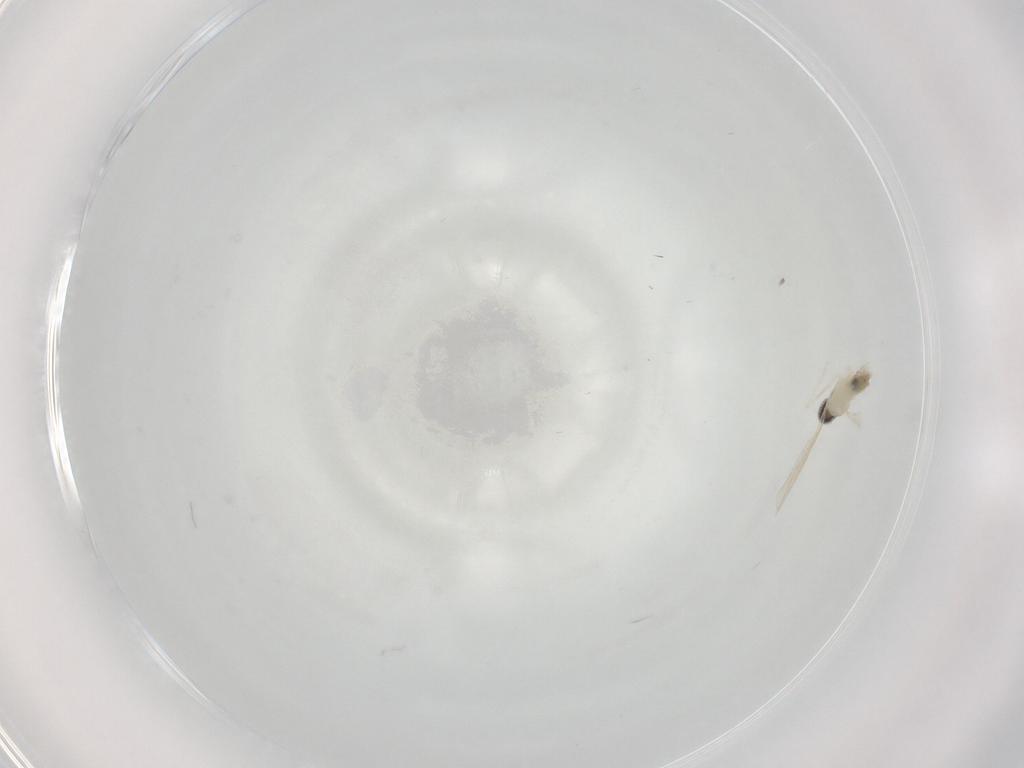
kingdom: Animalia
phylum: Arthropoda
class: Insecta
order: Diptera
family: Cecidomyiidae
